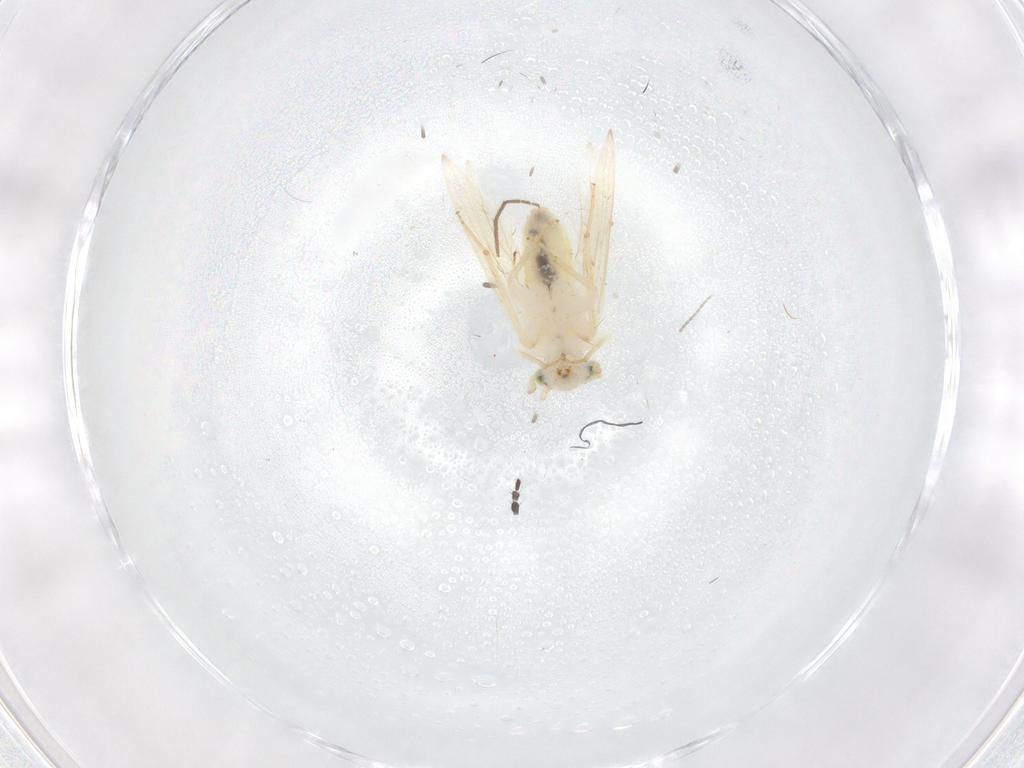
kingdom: Animalia
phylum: Arthropoda
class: Insecta
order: Psocodea
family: Lepidopsocidae
